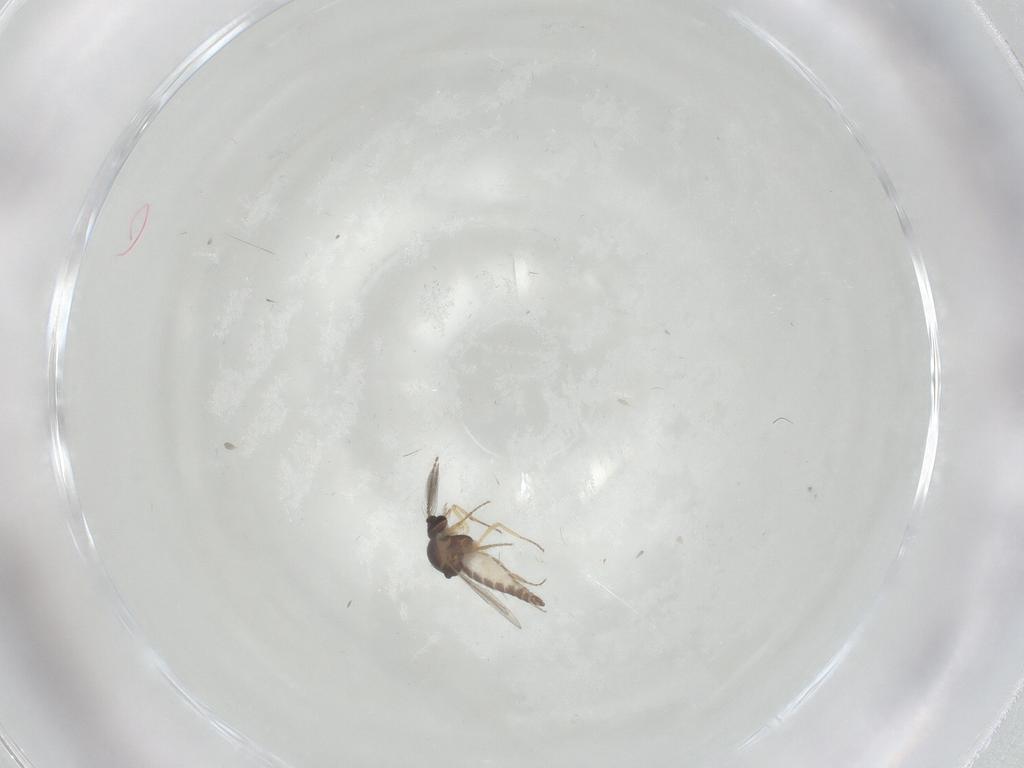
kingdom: Animalia
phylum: Arthropoda
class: Insecta
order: Diptera
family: Ceratopogonidae
